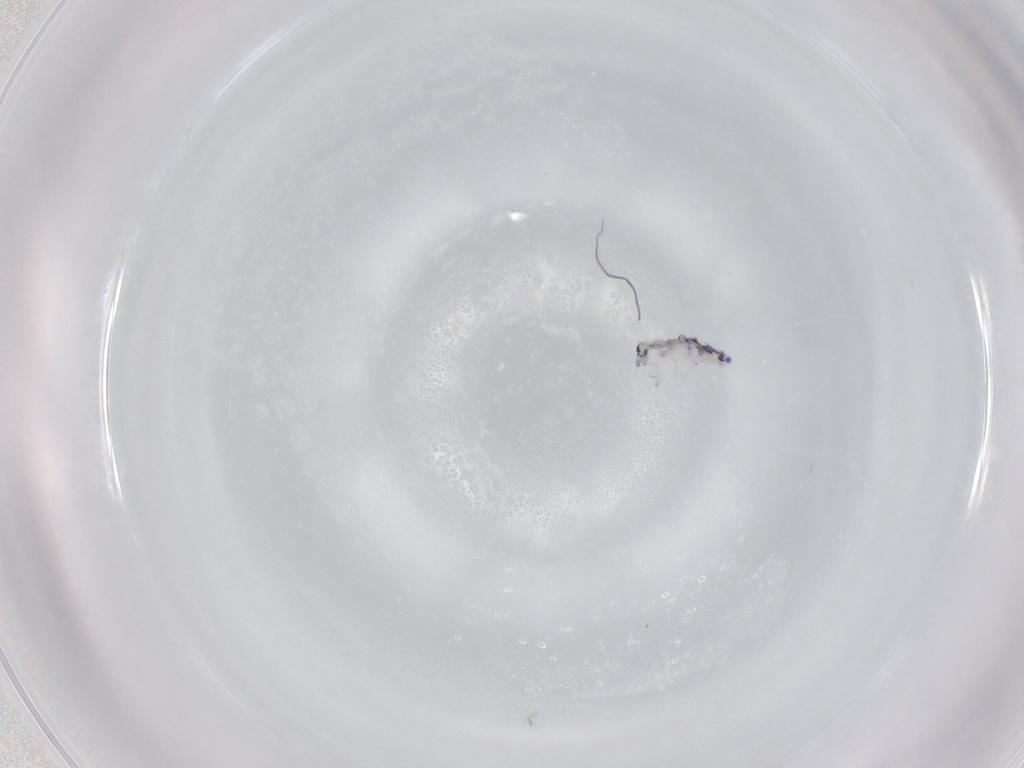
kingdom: Animalia
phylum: Arthropoda
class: Collembola
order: Entomobryomorpha
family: Entomobryidae
